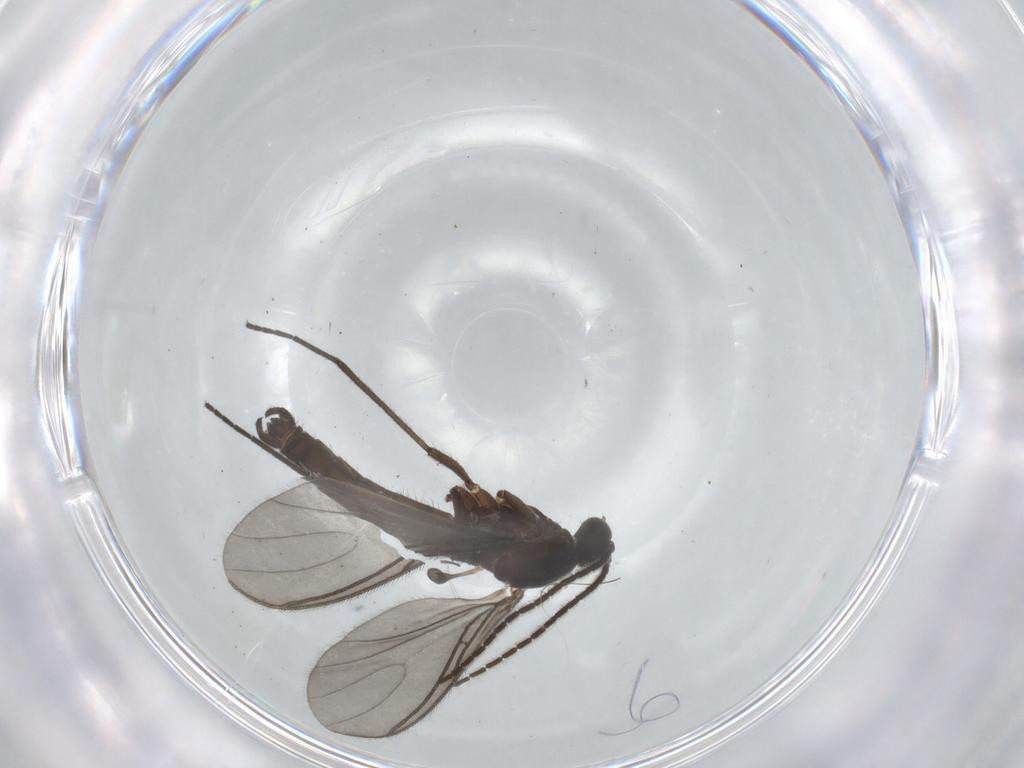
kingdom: Animalia
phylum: Arthropoda
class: Insecta
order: Diptera
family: Sciaridae
